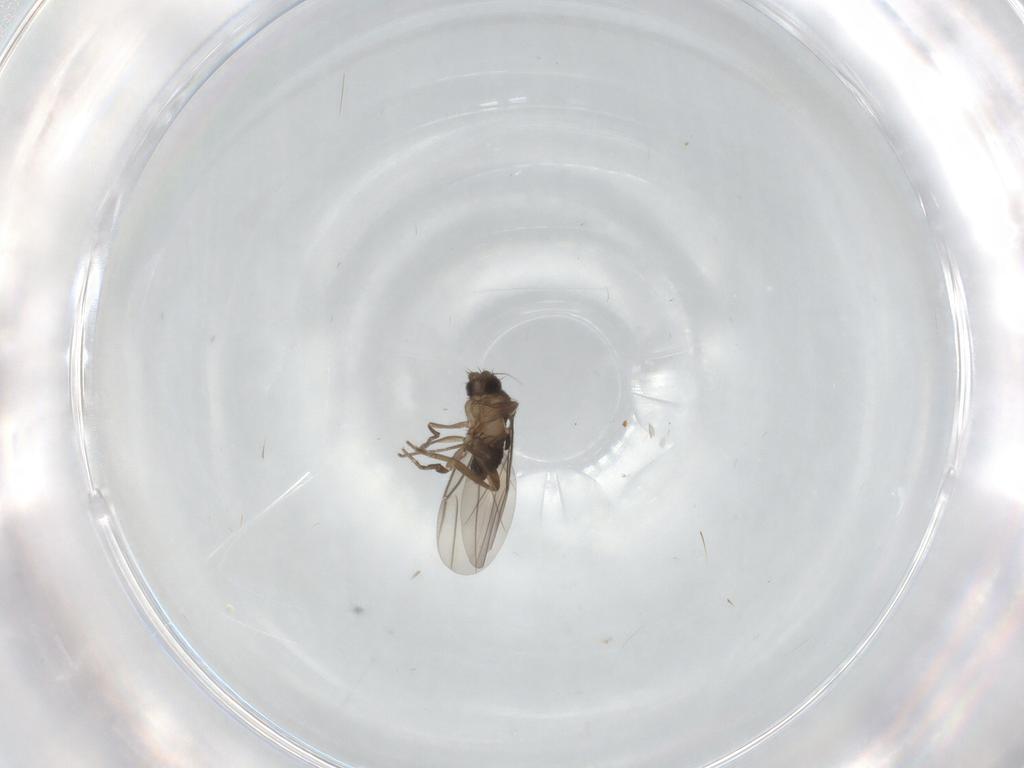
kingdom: Animalia
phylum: Arthropoda
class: Insecta
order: Diptera
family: Phoridae
